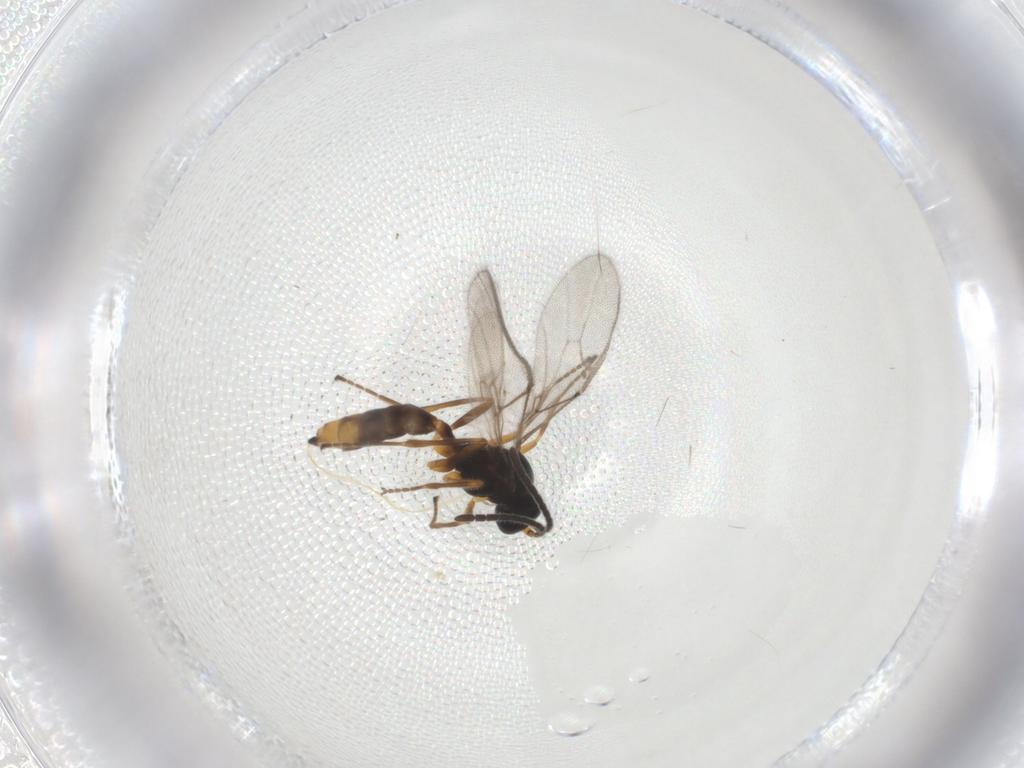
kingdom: Animalia
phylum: Arthropoda
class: Insecta
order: Hymenoptera
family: Braconidae
